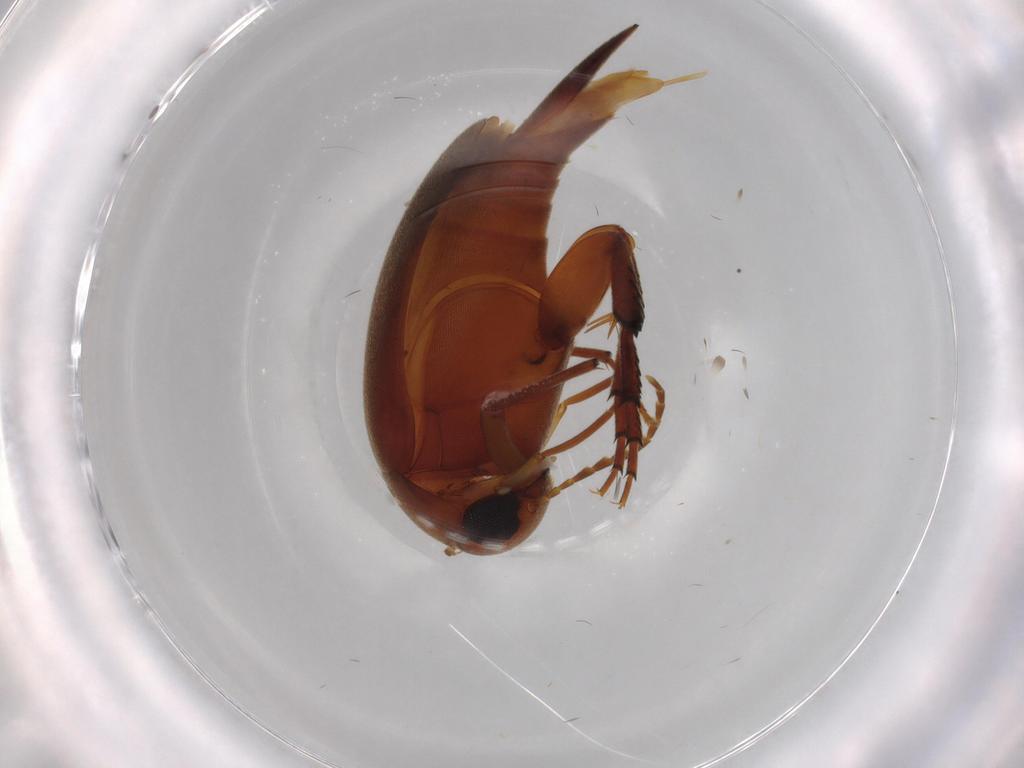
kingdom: Animalia
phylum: Arthropoda
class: Insecta
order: Coleoptera
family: Mordellidae
